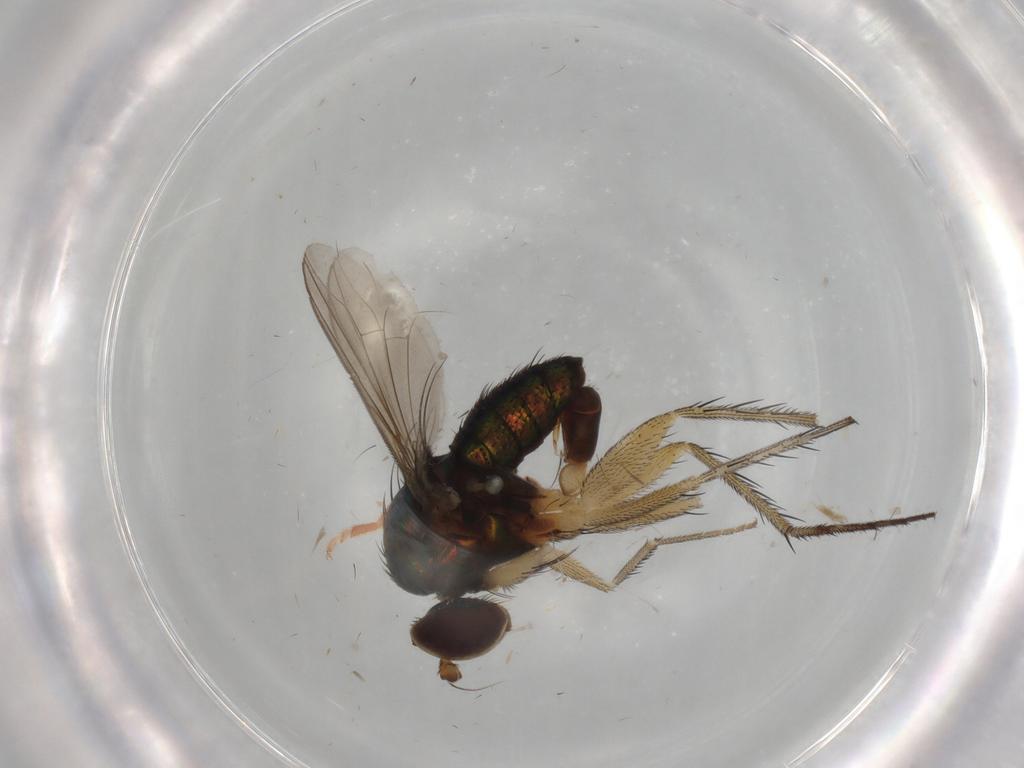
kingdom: Animalia
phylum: Arthropoda
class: Insecta
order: Diptera
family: Dolichopodidae
